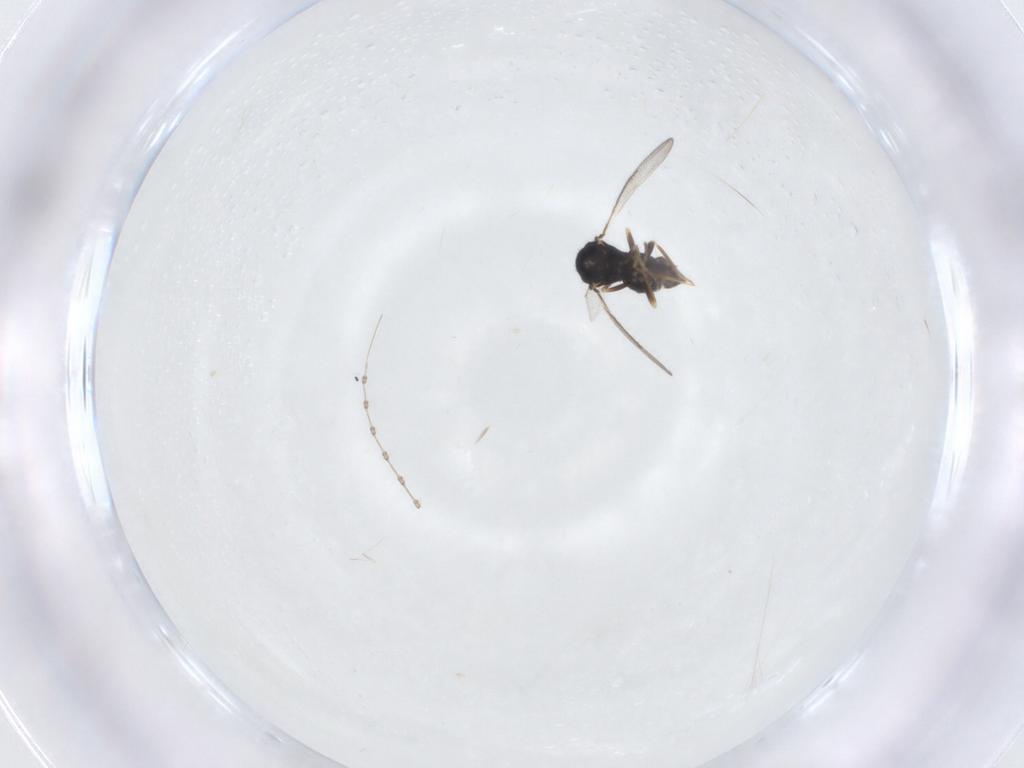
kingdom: Animalia
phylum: Arthropoda
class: Insecta
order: Hymenoptera
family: Eulophidae
